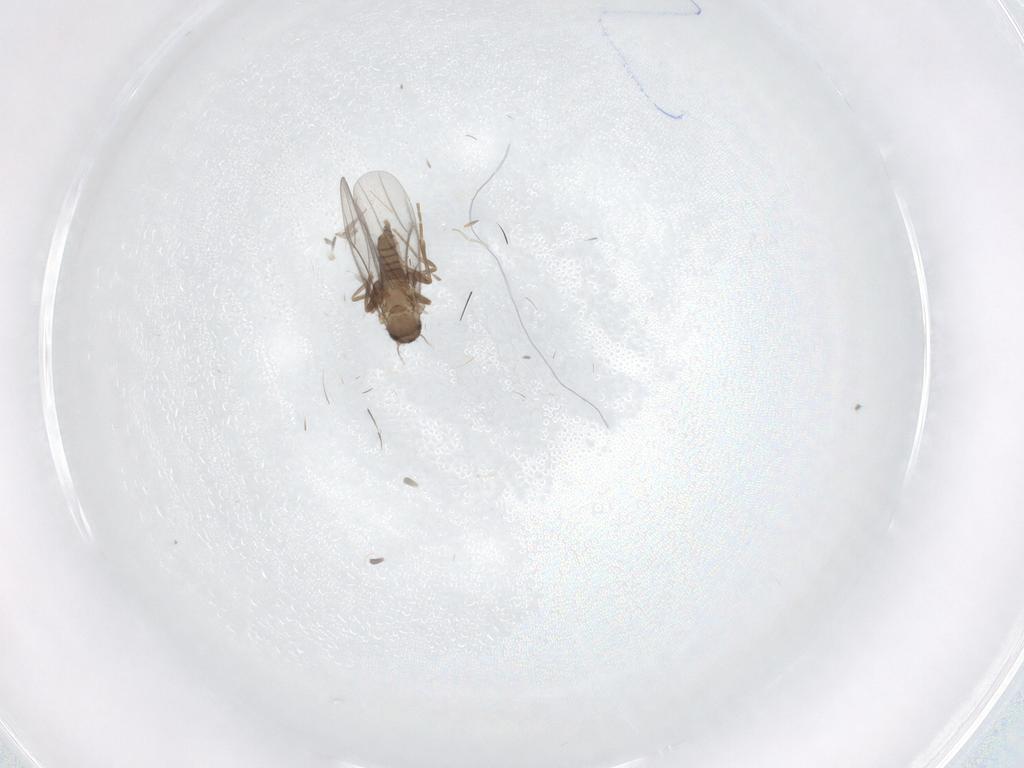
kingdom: Animalia
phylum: Arthropoda
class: Insecta
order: Diptera
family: Cecidomyiidae
